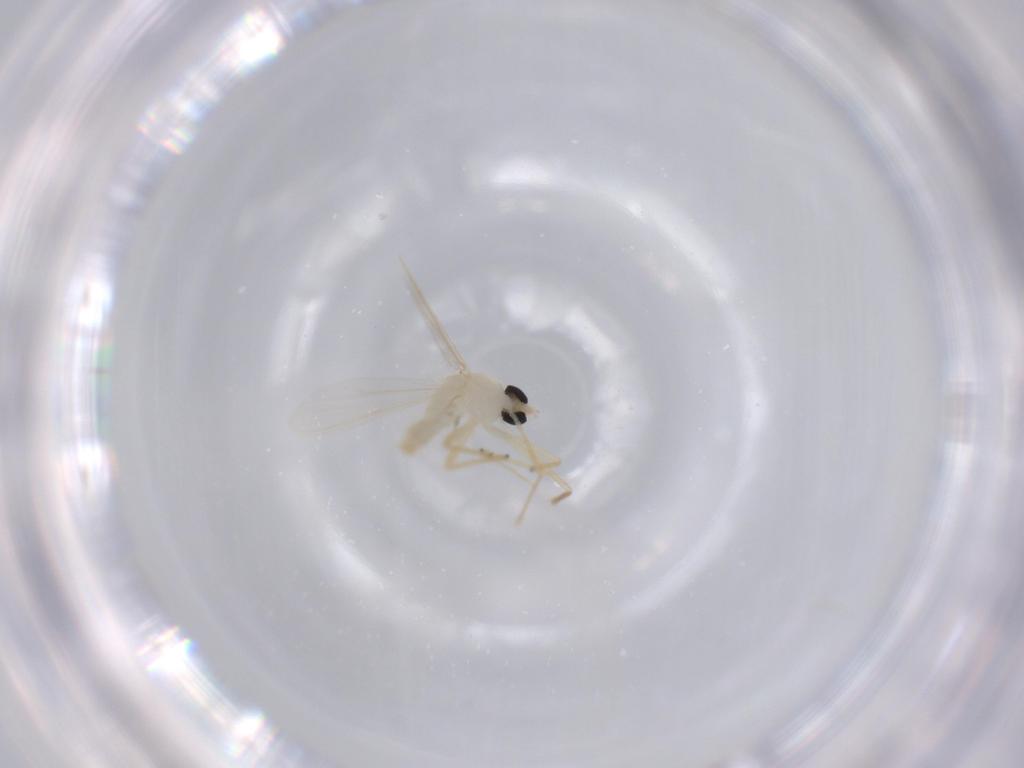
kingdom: Animalia
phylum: Arthropoda
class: Insecta
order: Diptera
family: Chironomidae
